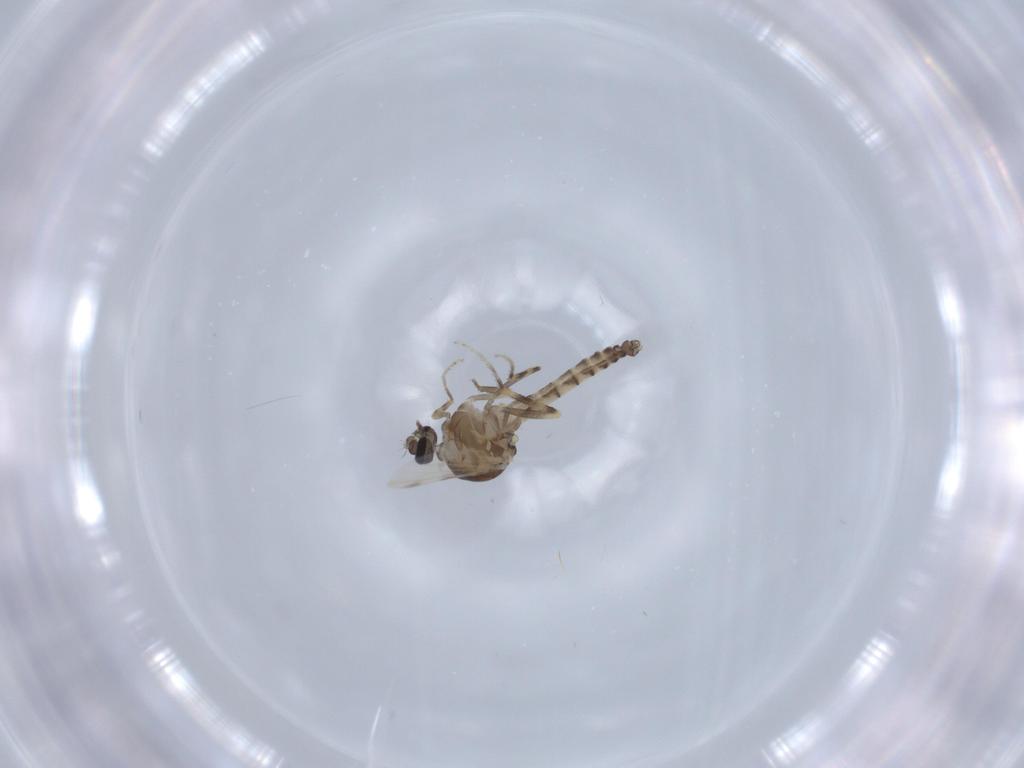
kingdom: Animalia
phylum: Arthropoda
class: Insecta
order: Diptera
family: Ceratopogonidae
